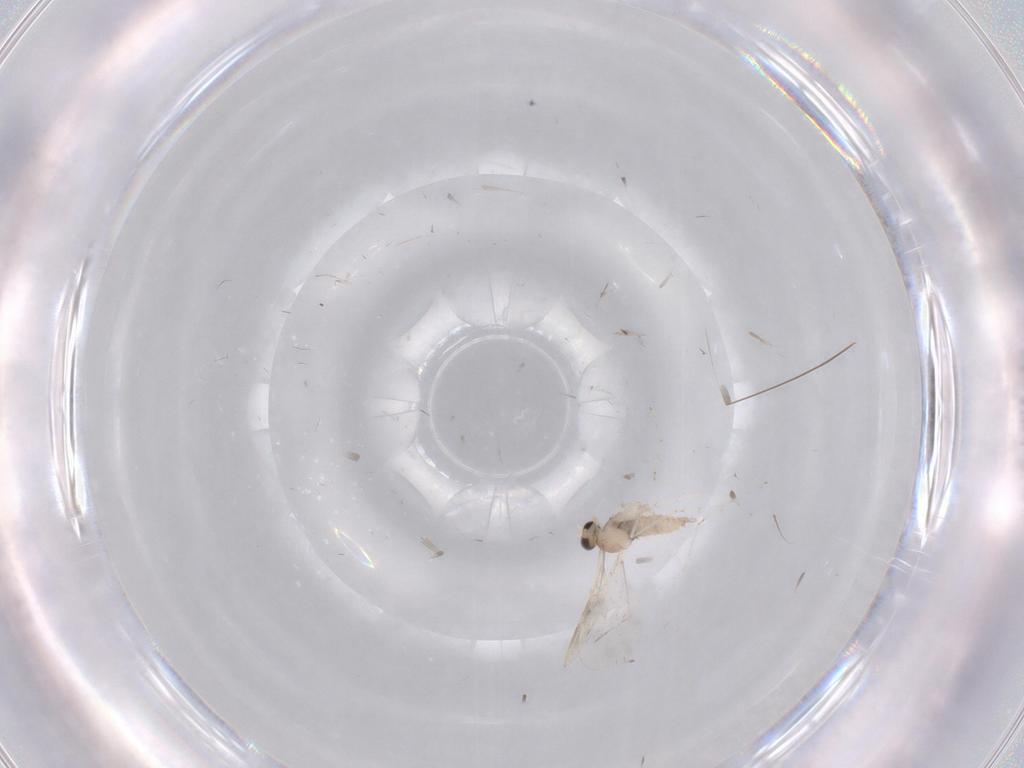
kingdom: Animalia
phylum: Arthropoda
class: Insecta
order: Diptera
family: Cecidomyiidae
